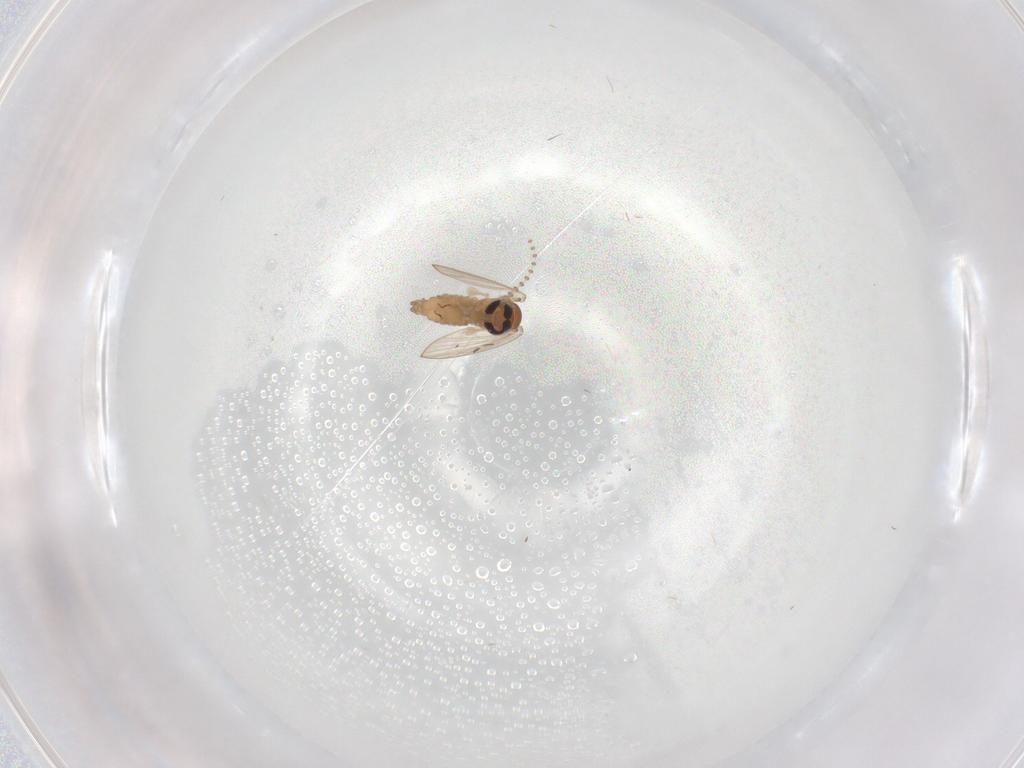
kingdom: Animalia
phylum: Arthropoda
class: Insecta
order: Diptera
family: Psychodidae
